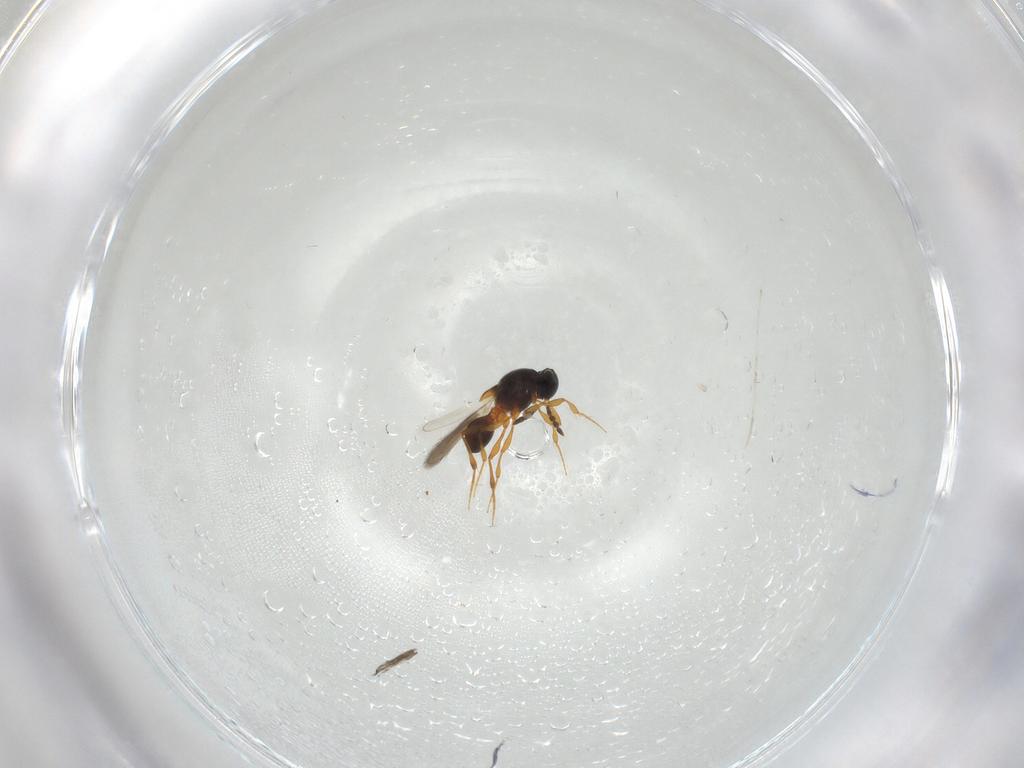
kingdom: Animalia
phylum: Arthropoda
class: Insecta
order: Hymenoptera
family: Platygastridae
